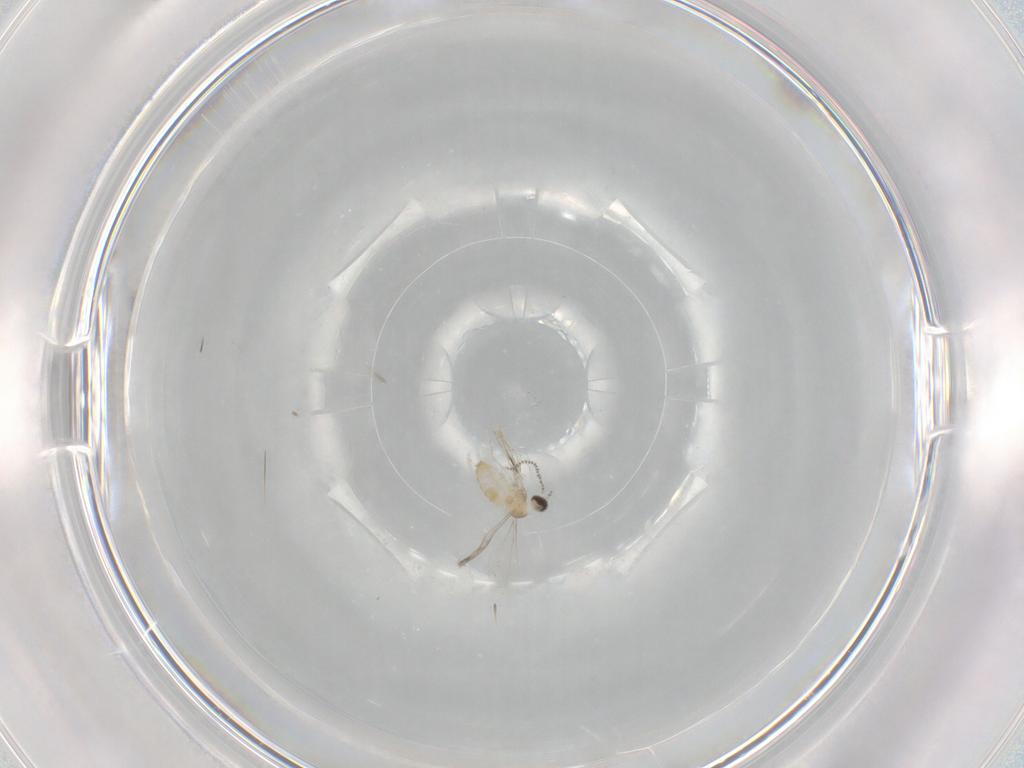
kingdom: Animalia
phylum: Arthropoda
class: Insecta
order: Diptera
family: Cecidomyiidae
